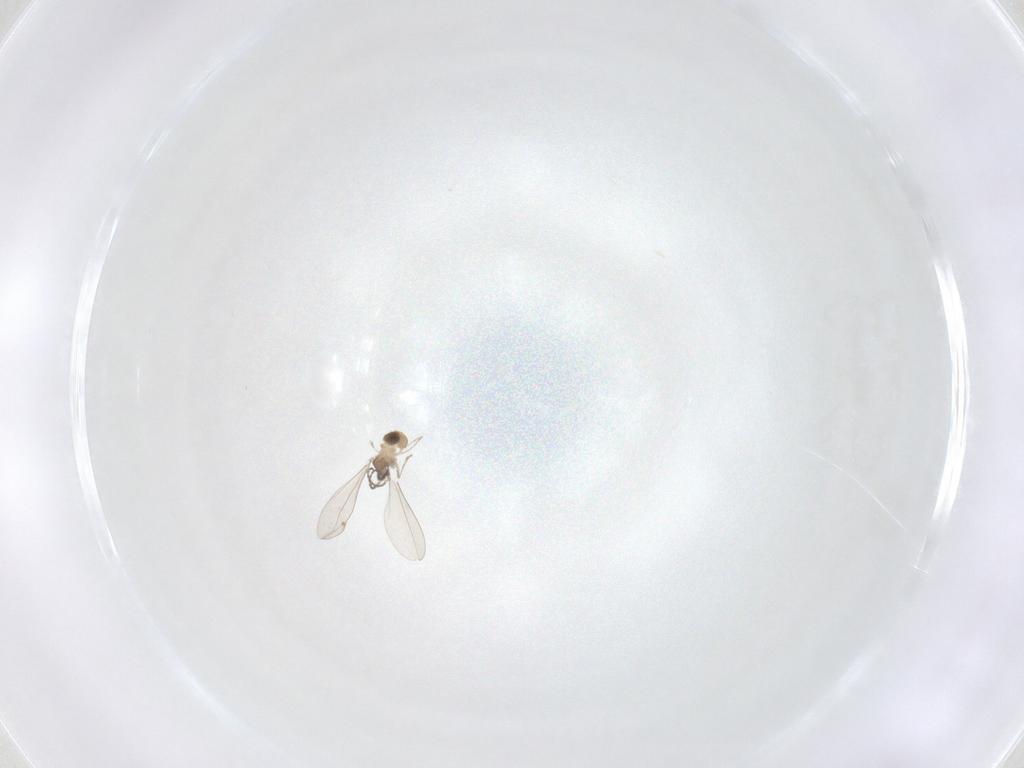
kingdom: Animalia
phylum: Arthropoda
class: Insecta
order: Diptera
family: Cecidomyiidae
